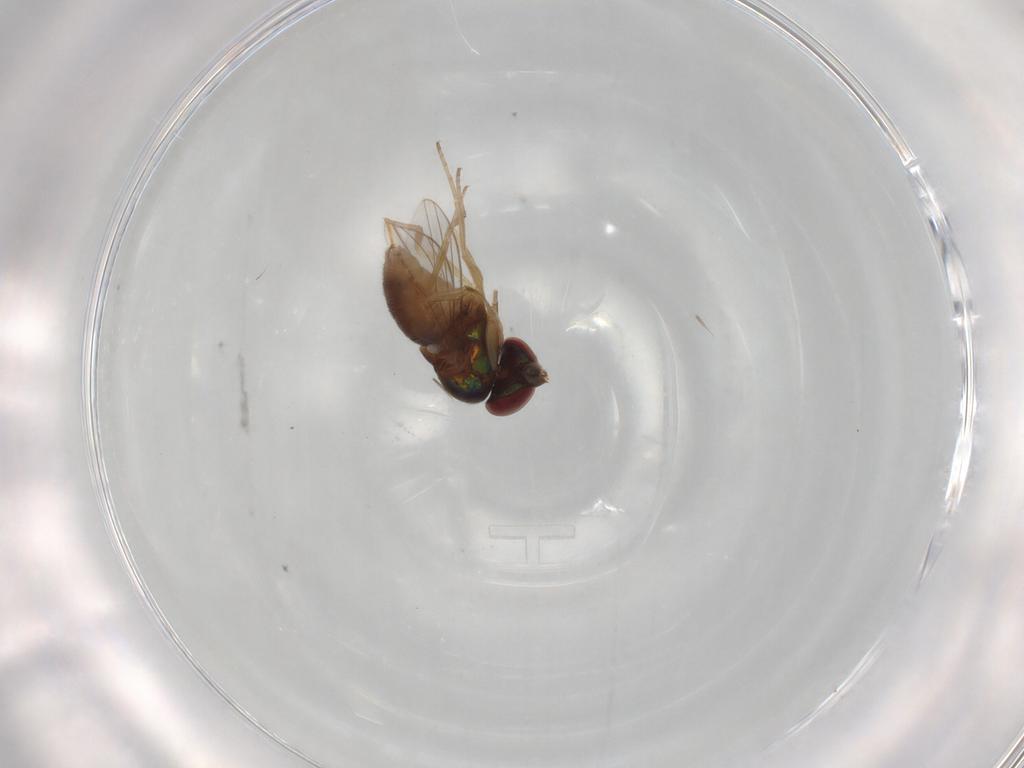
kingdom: Animalia
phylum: Arthropoda
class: Insecta
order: Diptera
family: Dolichopodidae
